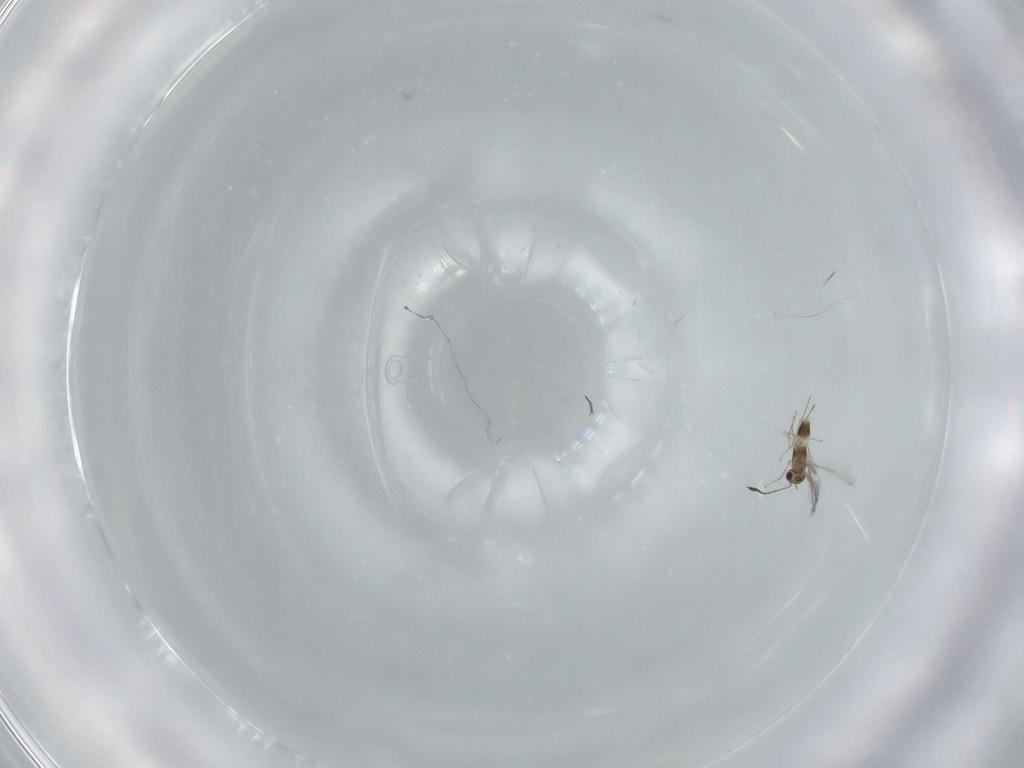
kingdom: Animalia
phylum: Arthropoda
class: Insecta
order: Hymenoptera
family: Mymaridae
